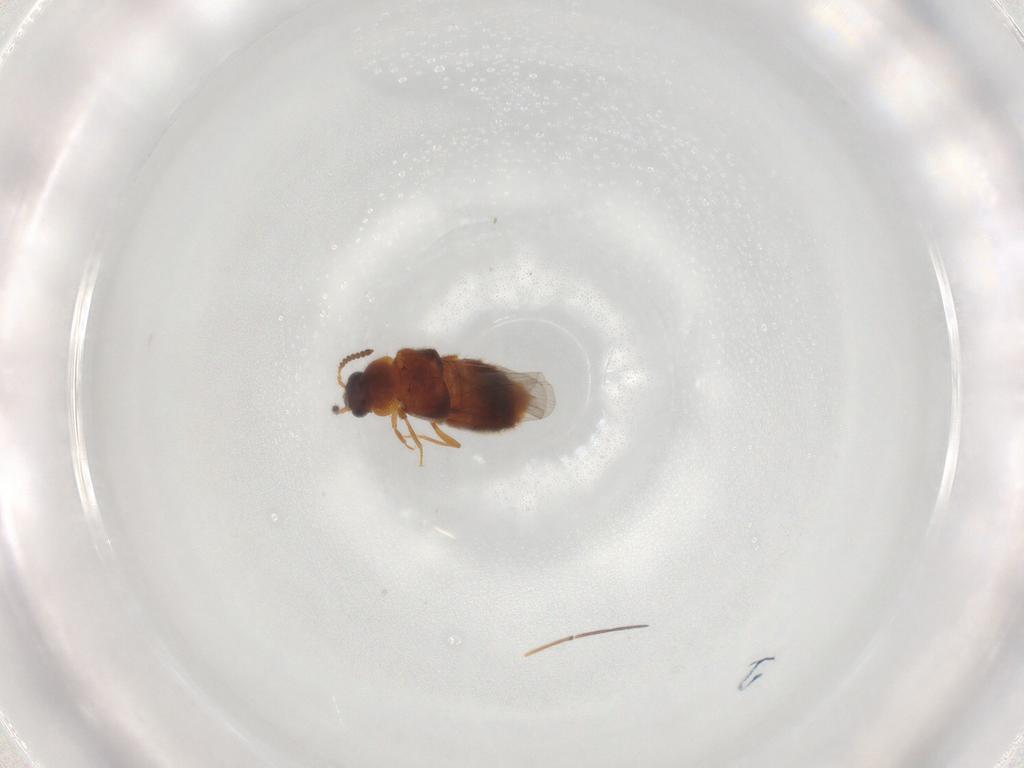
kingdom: Animalia
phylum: Arthropoda
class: Insecta
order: Coleoptera
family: Staphylinidae
